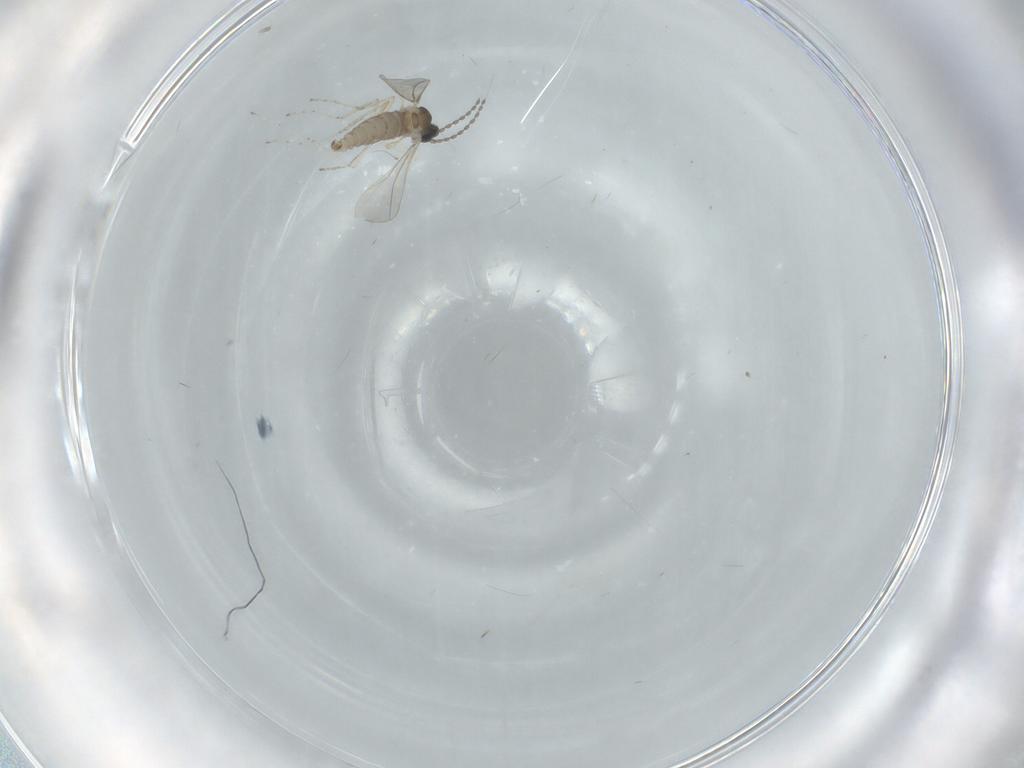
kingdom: Animalia
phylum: Arthropoda
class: Insecta
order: Diptera
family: Cecidomyiidae
